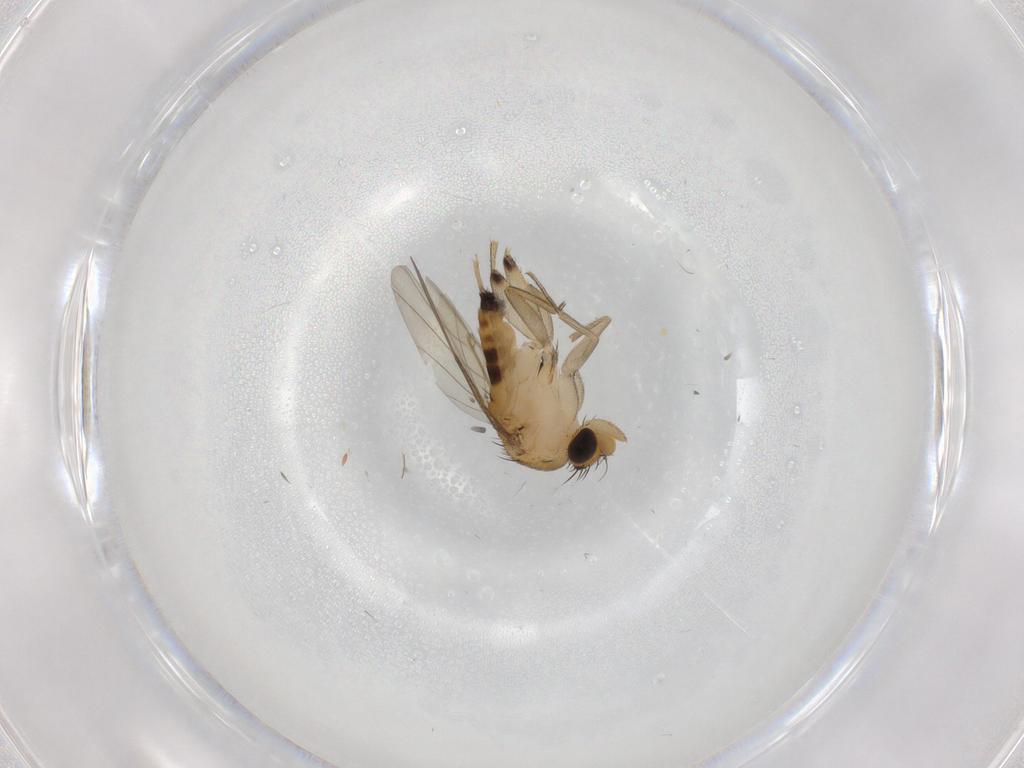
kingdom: Animalia
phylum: Arthropoda
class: Insecta
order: Diptera
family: Phoridae
